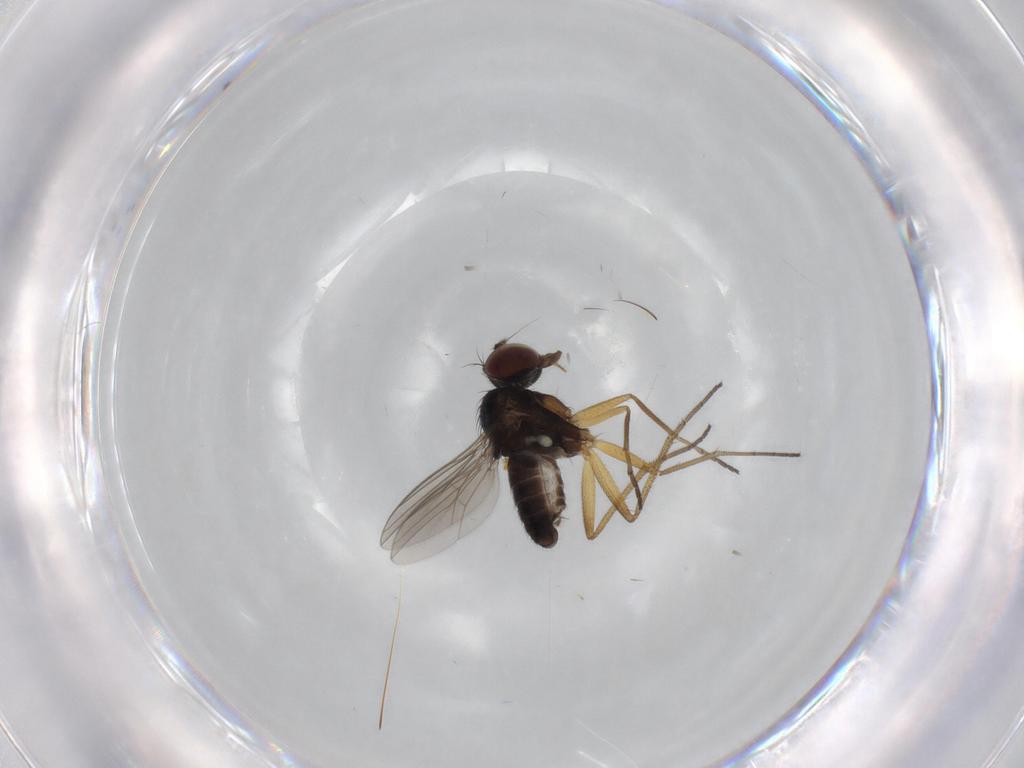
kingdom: Animalia
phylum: Arthropoda
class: Insecta
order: Diptera
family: Dolichopodidae
